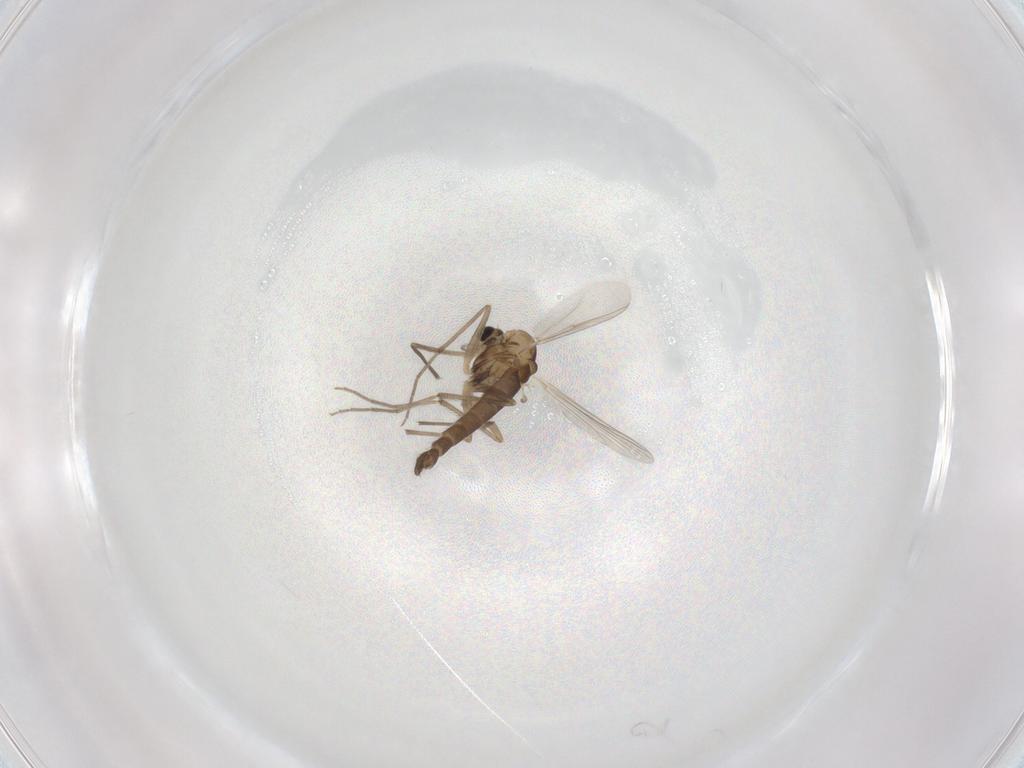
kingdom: Animalia
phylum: Arthropoda
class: Insecta
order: Diptera
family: Chironomidae
